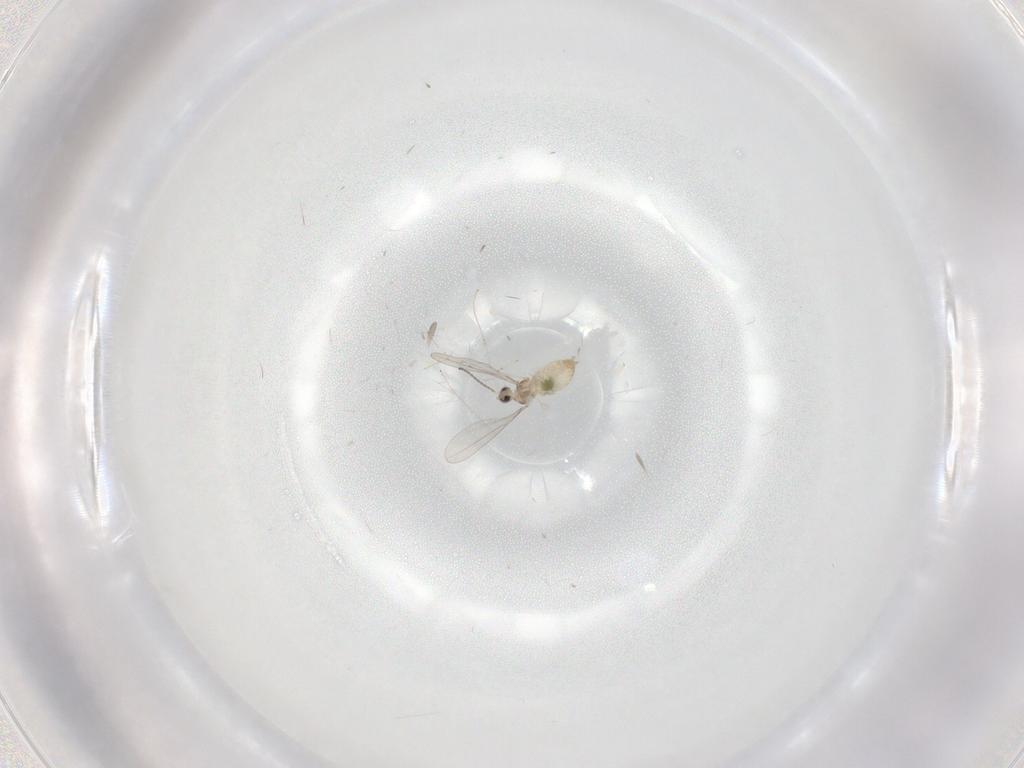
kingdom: Animalia
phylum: Arthropoda
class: Insecta
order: Diptera
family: Cecidomyiidae
